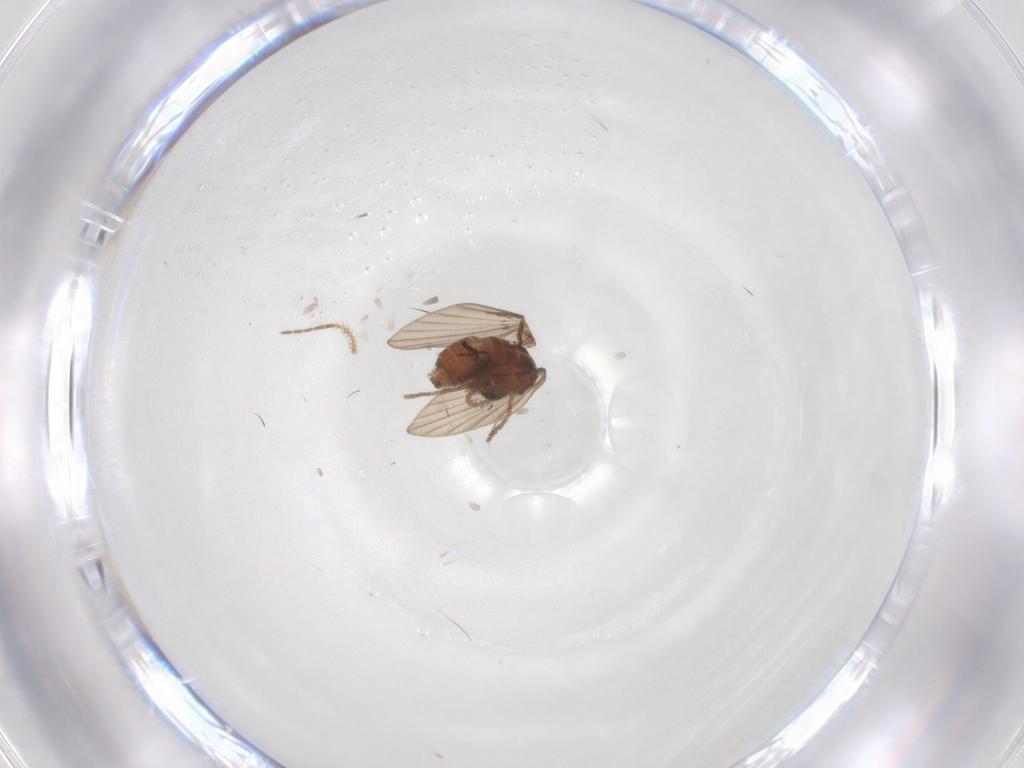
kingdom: Animalia
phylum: Arthropoda
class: Insecta
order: Diptera
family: Psychodidae
